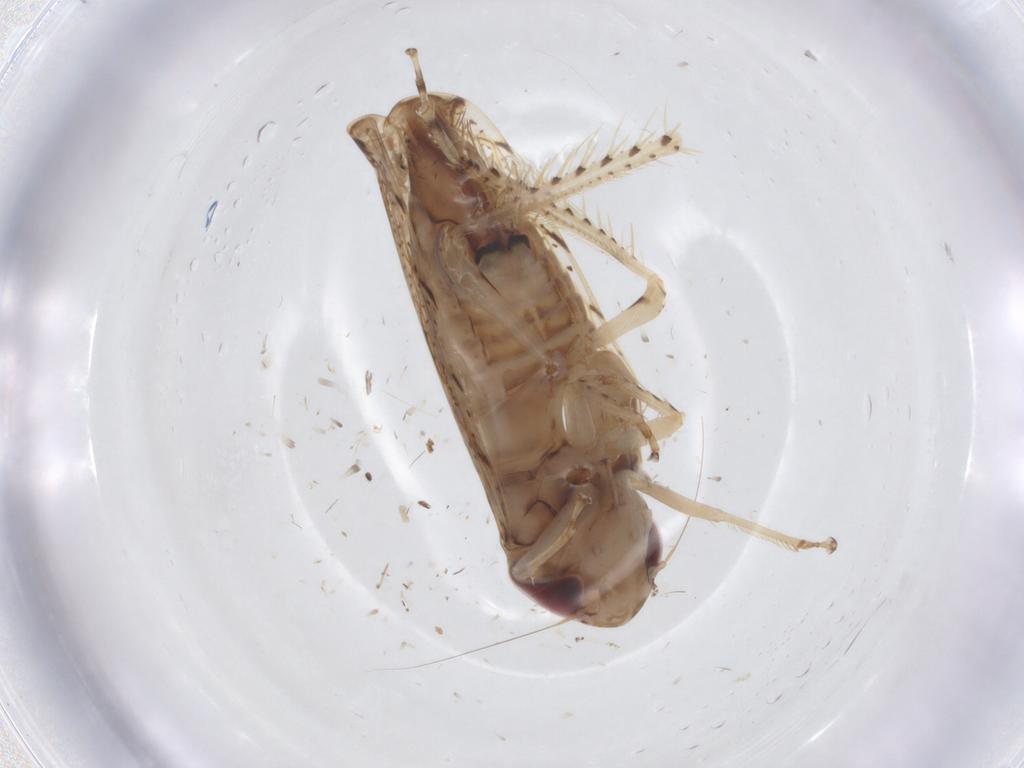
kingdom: Animalia
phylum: Arthropoda
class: Insecta
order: Hemiptera
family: Cicadellidae
